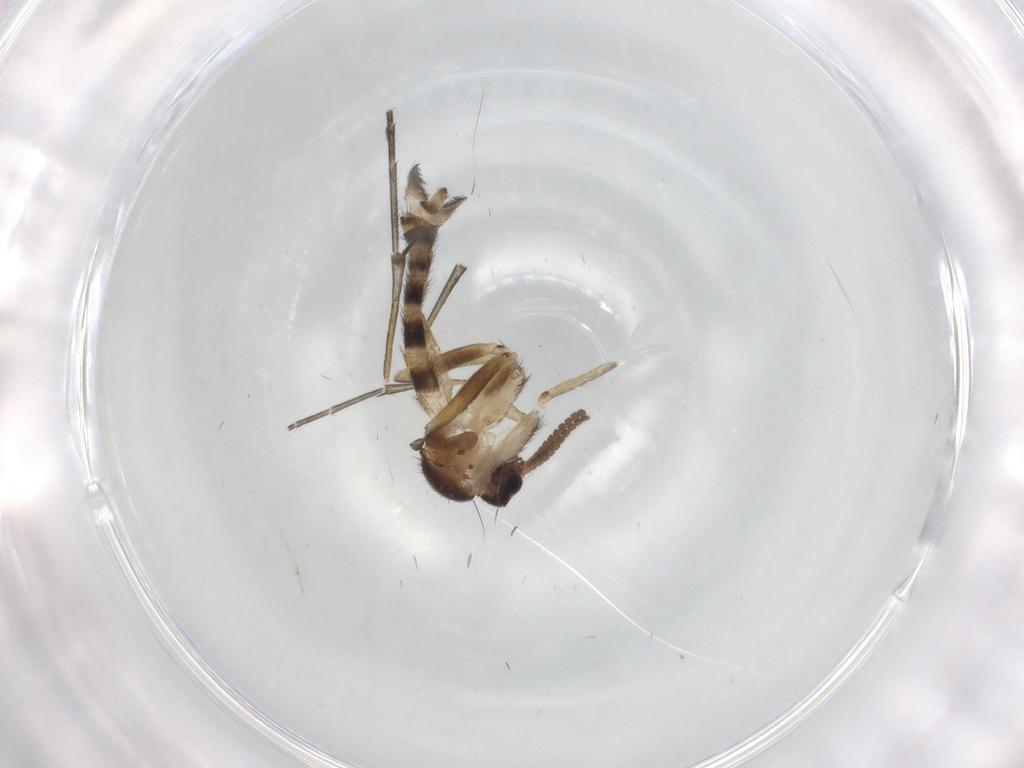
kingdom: Animalia
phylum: Arthropoda
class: Insecta
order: Diptera
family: Sciaridae
